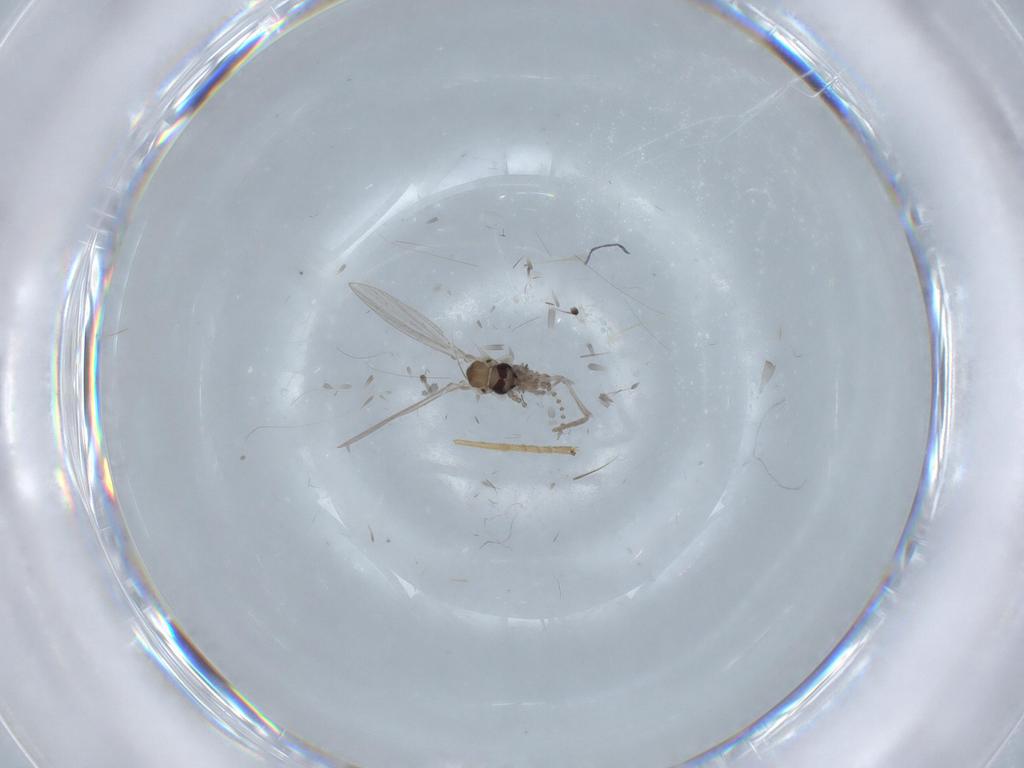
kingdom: Animalia
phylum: Arthropoda
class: Insecta
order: Diptera
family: Psychodidae
